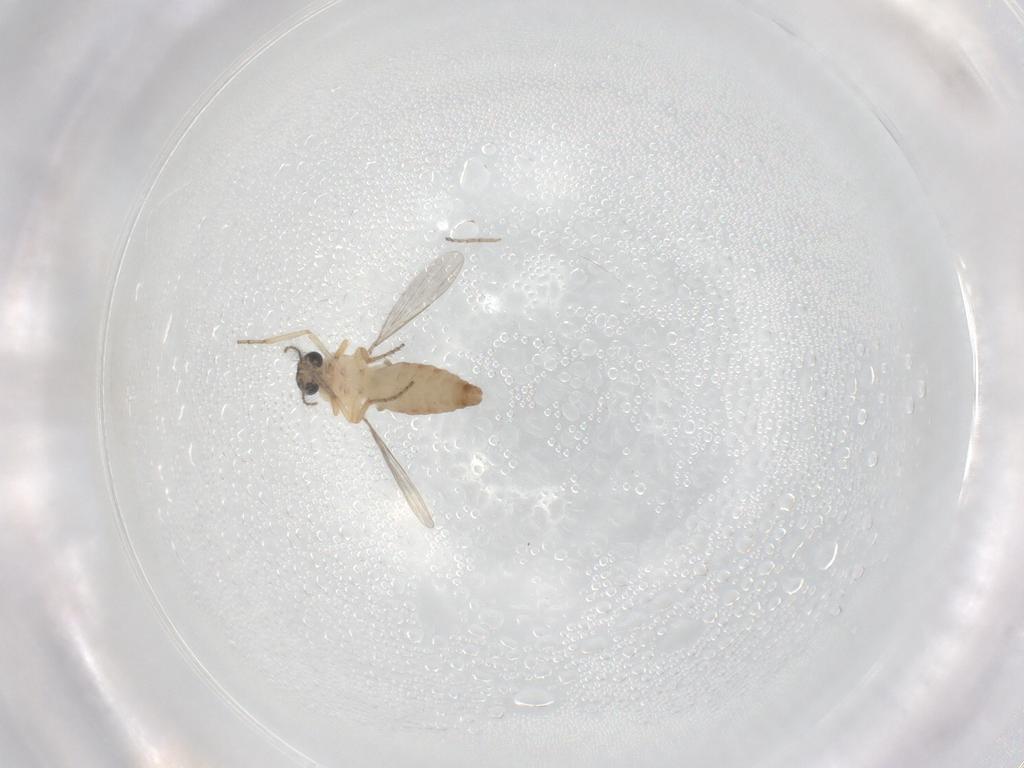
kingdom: Animalia
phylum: Arthropoda
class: Insecta
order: Diptera
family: Ceratopogonidae
